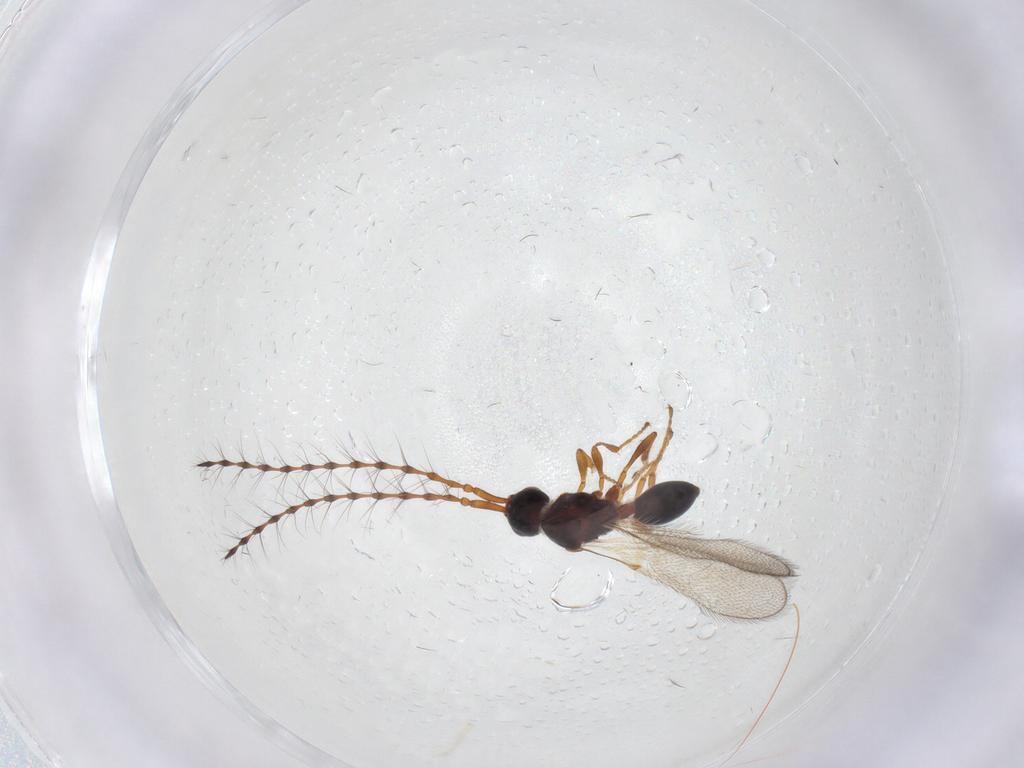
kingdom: Animalia
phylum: Arthropoda
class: Insecta
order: Hymenoptera
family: Diapriidae
